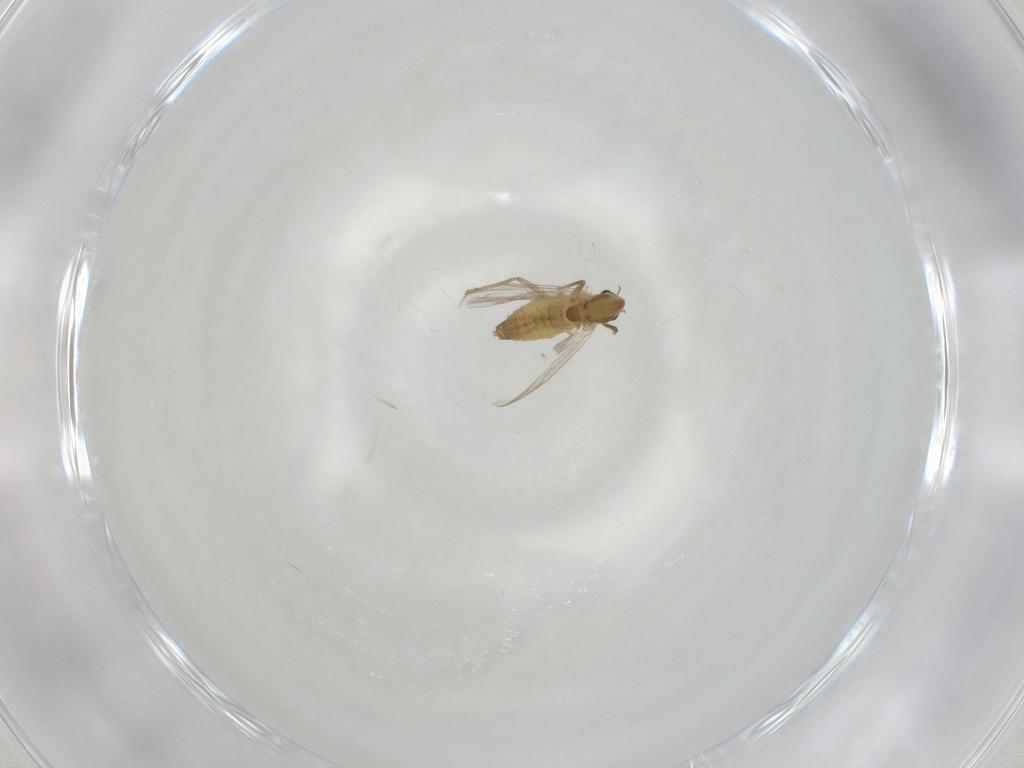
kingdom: Animalia
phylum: Arthropoda
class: Insecta
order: Diptera
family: Chironomidae
